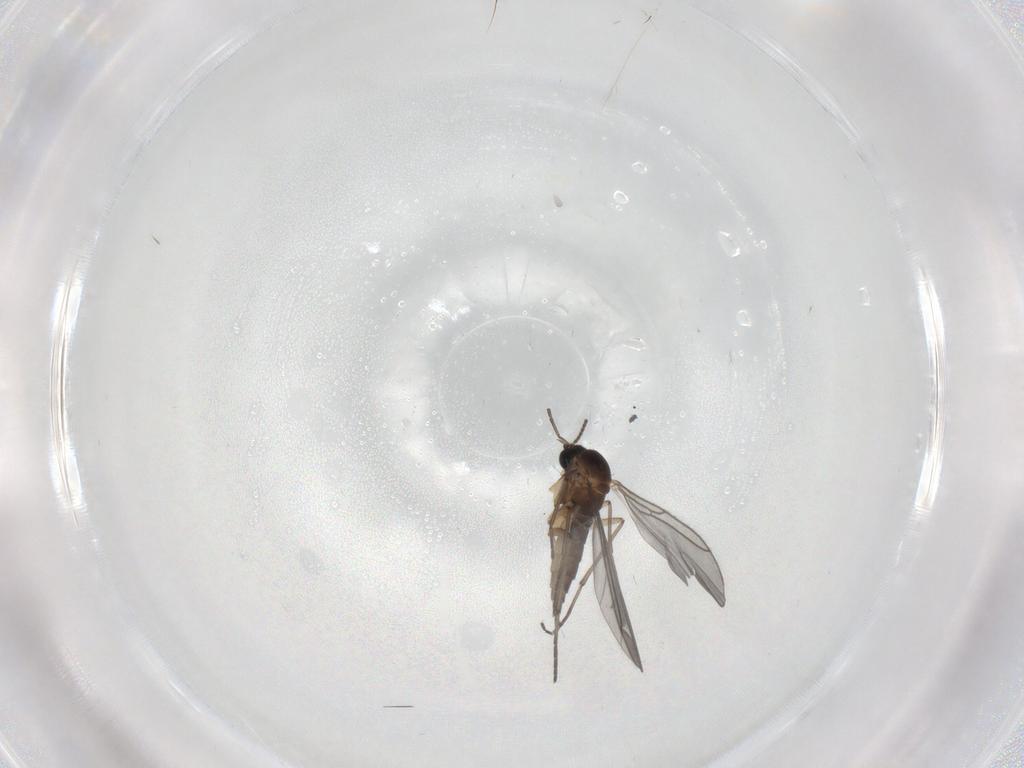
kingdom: Animalia
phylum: Arthropoda
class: Insecta
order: Diptera
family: Sciaridae
